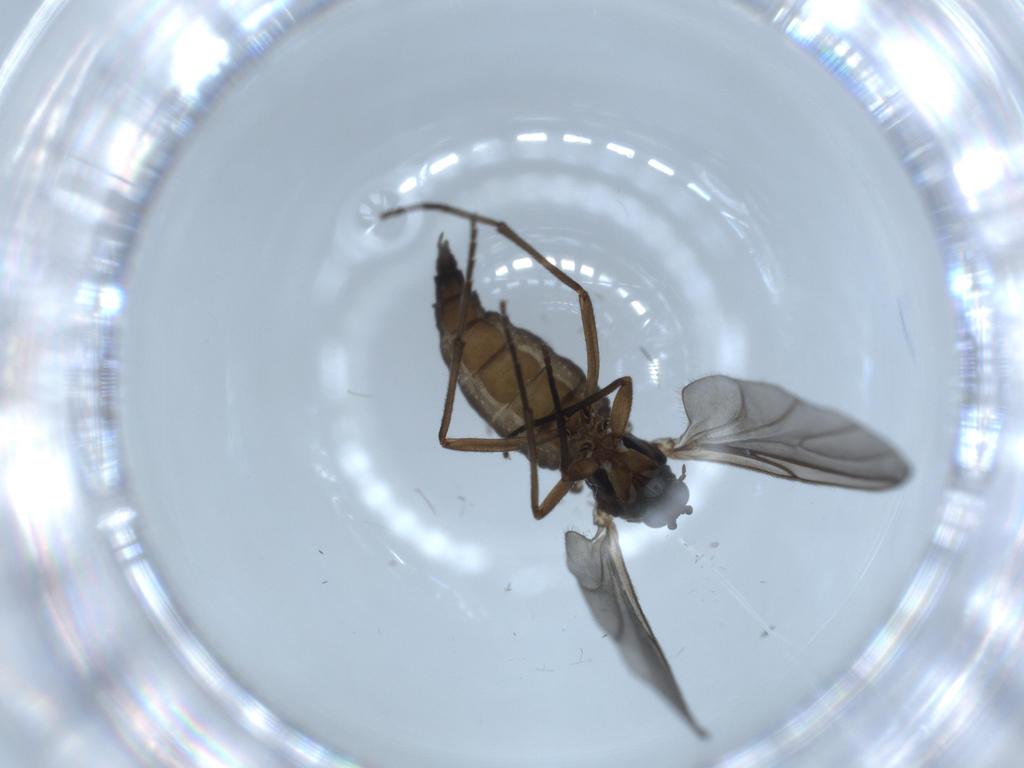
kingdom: Animalia
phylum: Arthropoda
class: Insecta
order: Diptera
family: Sciaridae
